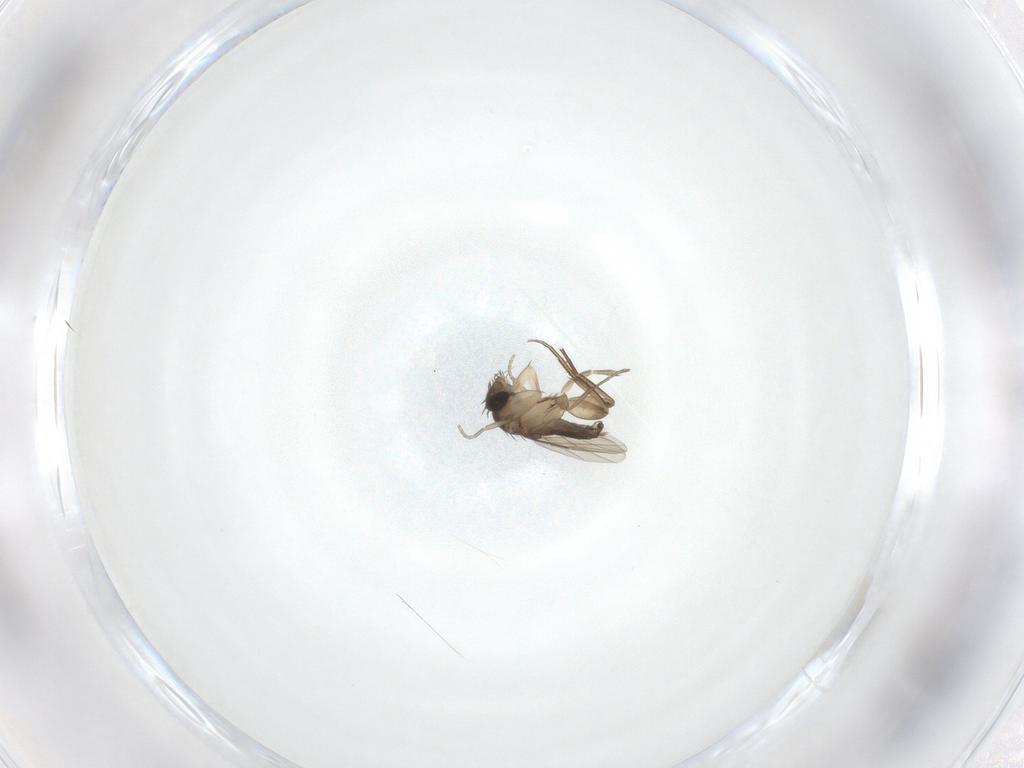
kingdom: Animalia
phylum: Arthropoda
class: Insecta
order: Diptera
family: Phoridae
